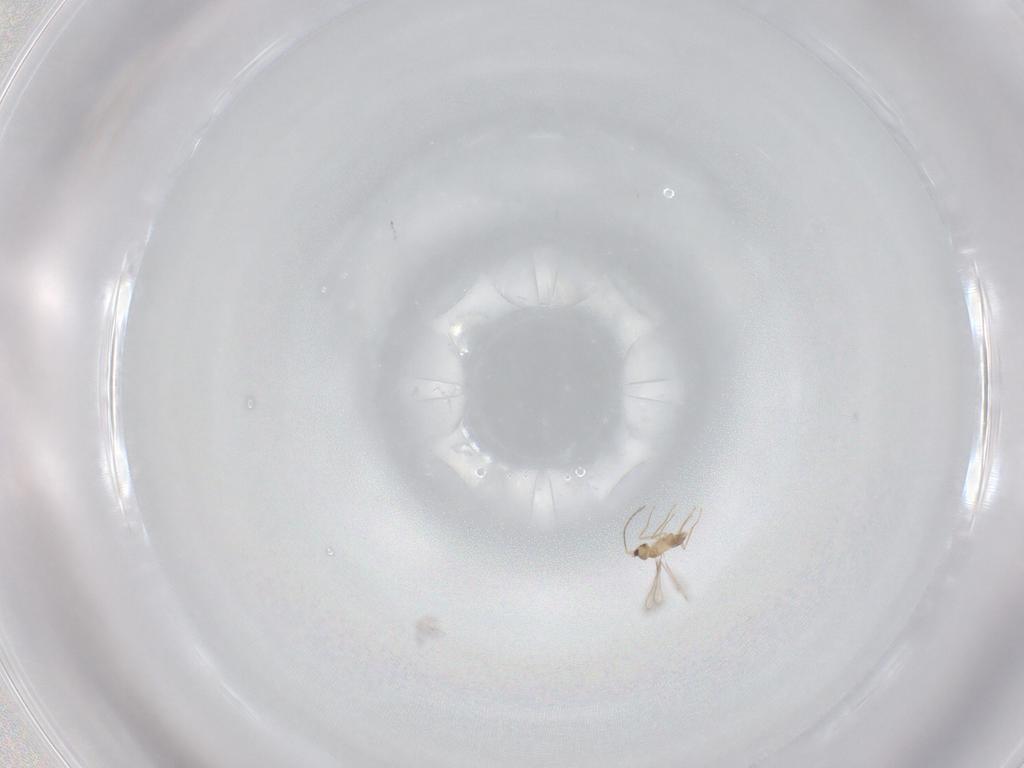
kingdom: Animalia
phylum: Arthropoda
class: Insecta
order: Hymenoptera
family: Mymaridae
